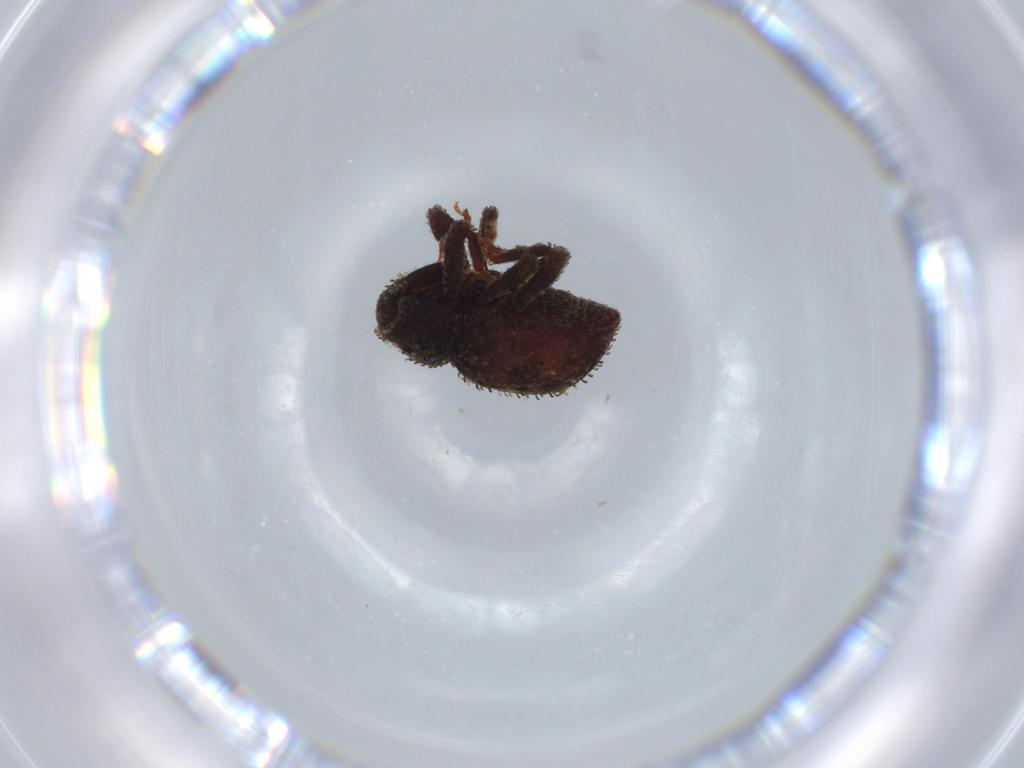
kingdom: Animalia
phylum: Arthropoda
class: Insecta
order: Coleoptera
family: Curculionidae
